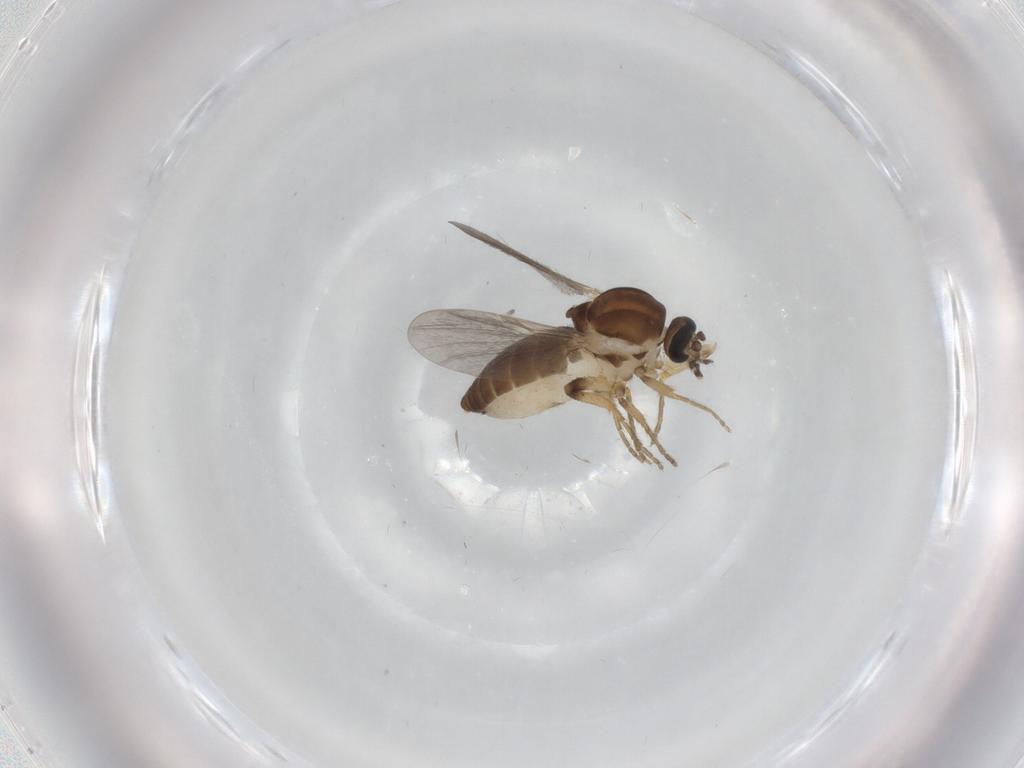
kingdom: Animalia
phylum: Arthropoda
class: Insecta
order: Diptera
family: Ceratopogonidae
